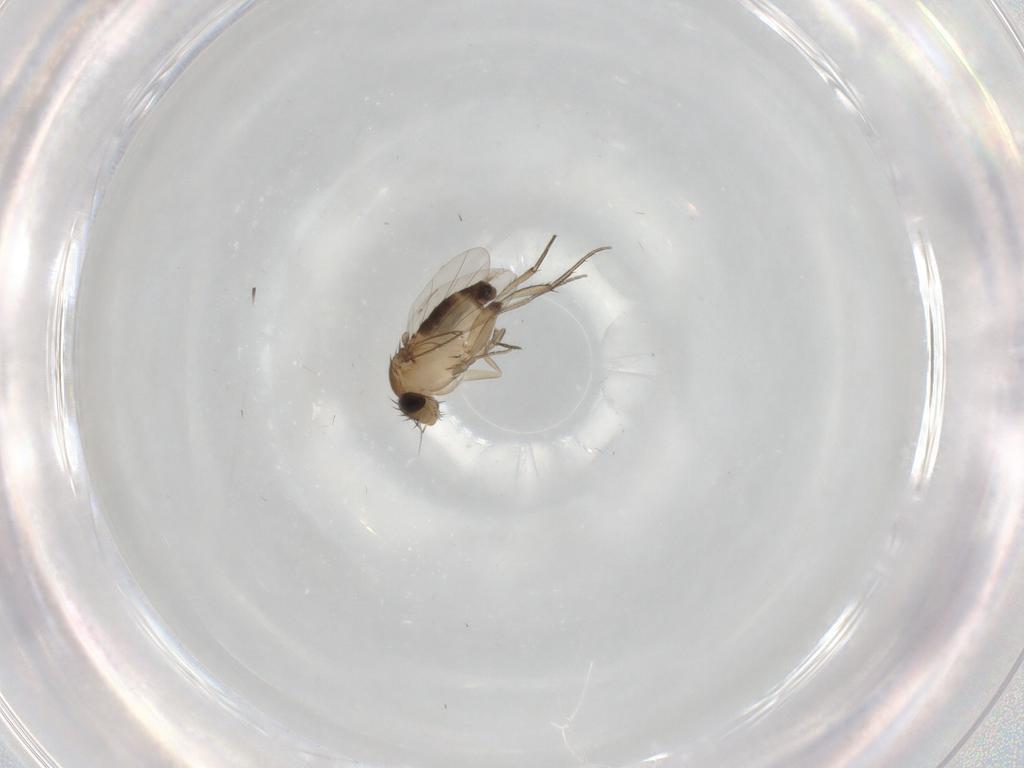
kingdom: Animalia
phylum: Arthropoda
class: Insecta
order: Diptera
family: Phoridae
